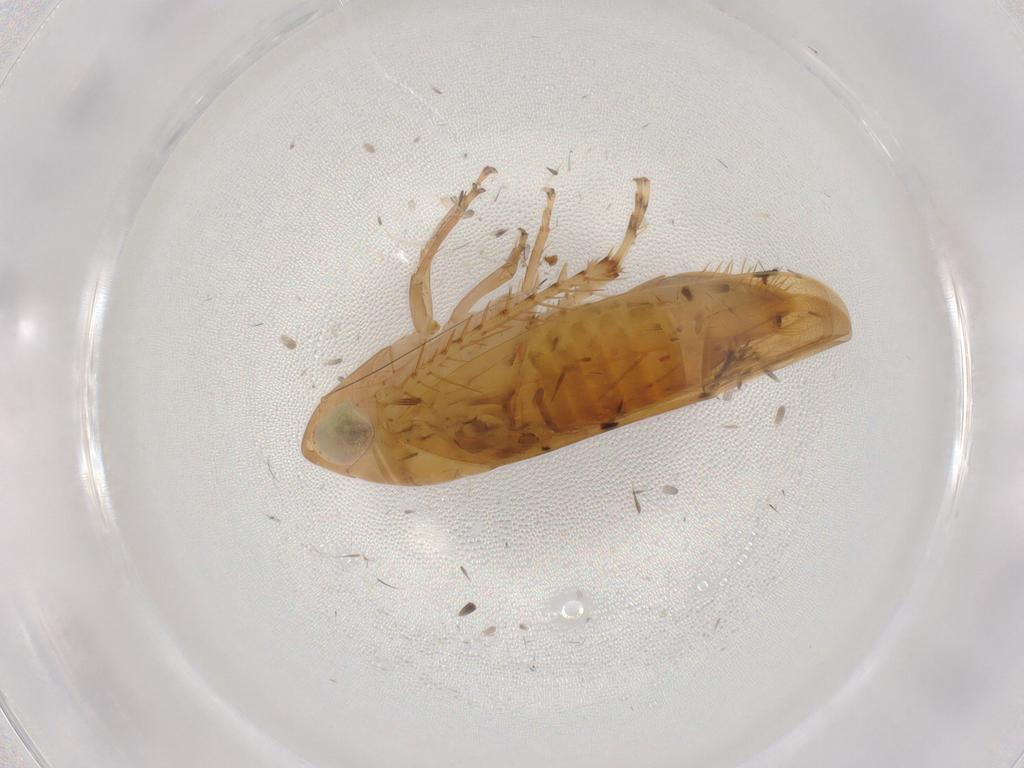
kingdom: Animalia
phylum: Arthropoda
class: Insecta
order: Hemiptera
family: Cicadellidae
